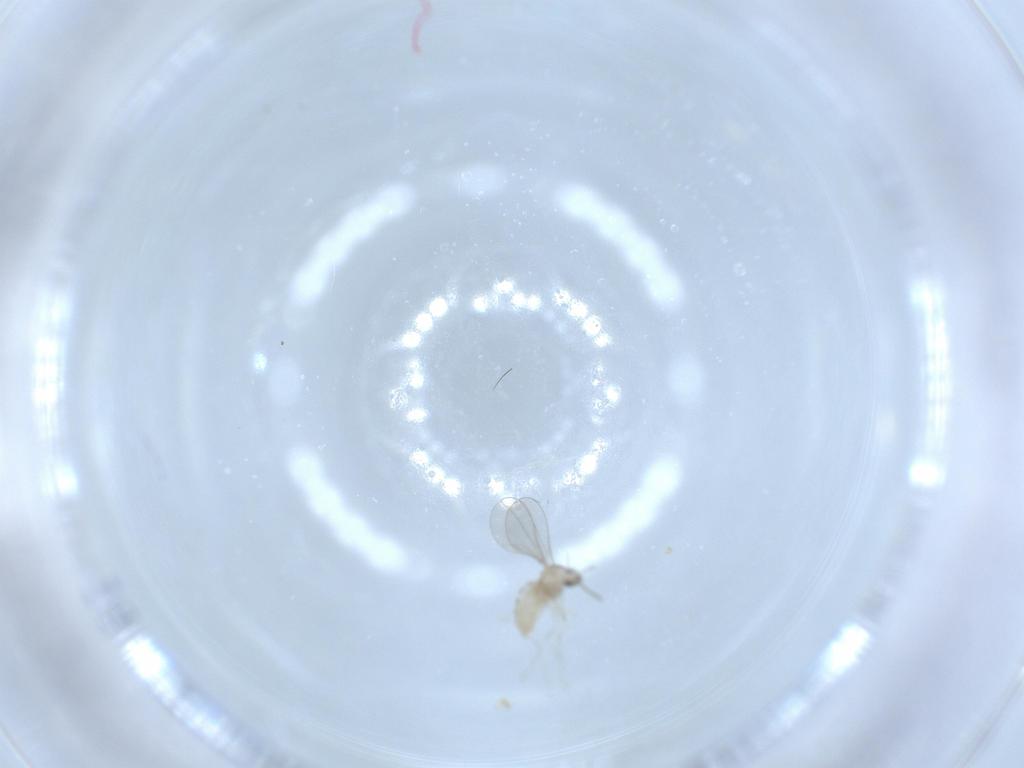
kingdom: Animalia
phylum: Arthropoda
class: Insecta
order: Diptera
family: Cecidomyiidae
